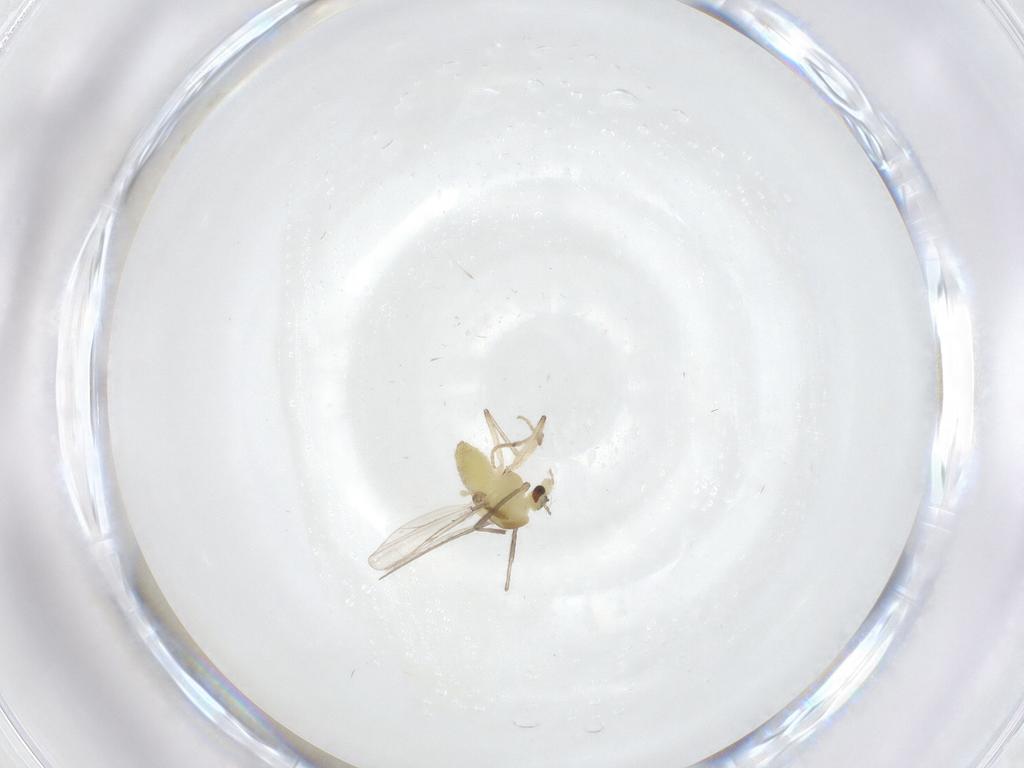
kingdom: Animalia
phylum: Arthropoda
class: Insecta
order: Diptera
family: Chironomidae
